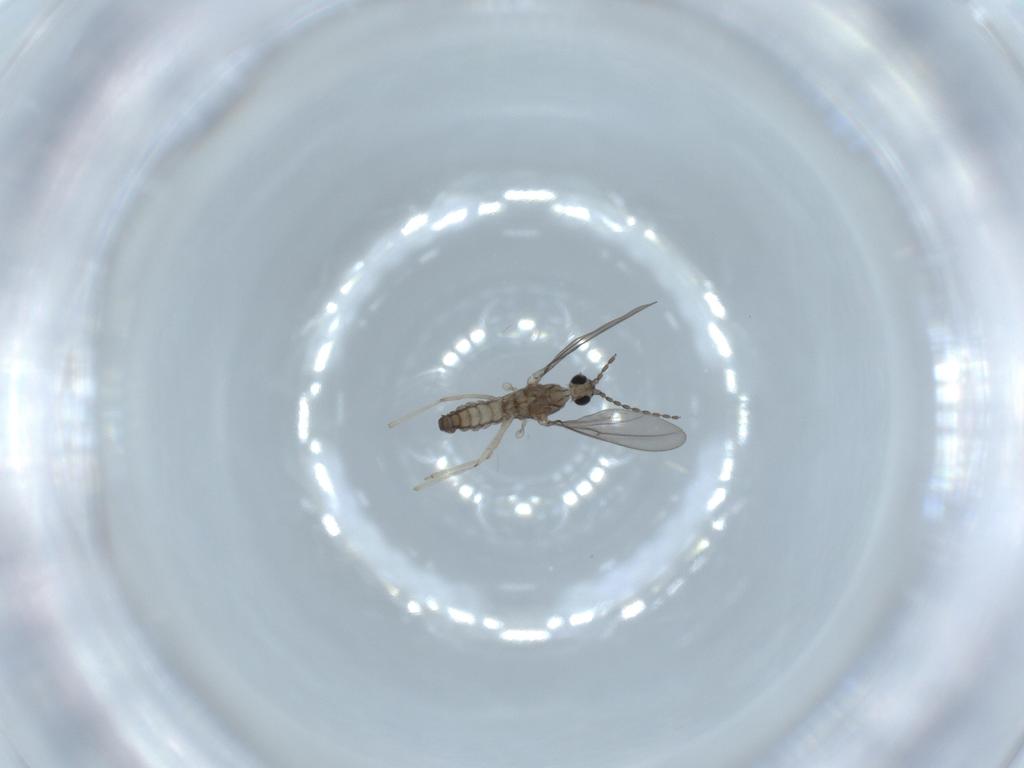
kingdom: Animalia
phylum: Arthropoda
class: Insecta
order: Diptera
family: Cecidomyiidae
